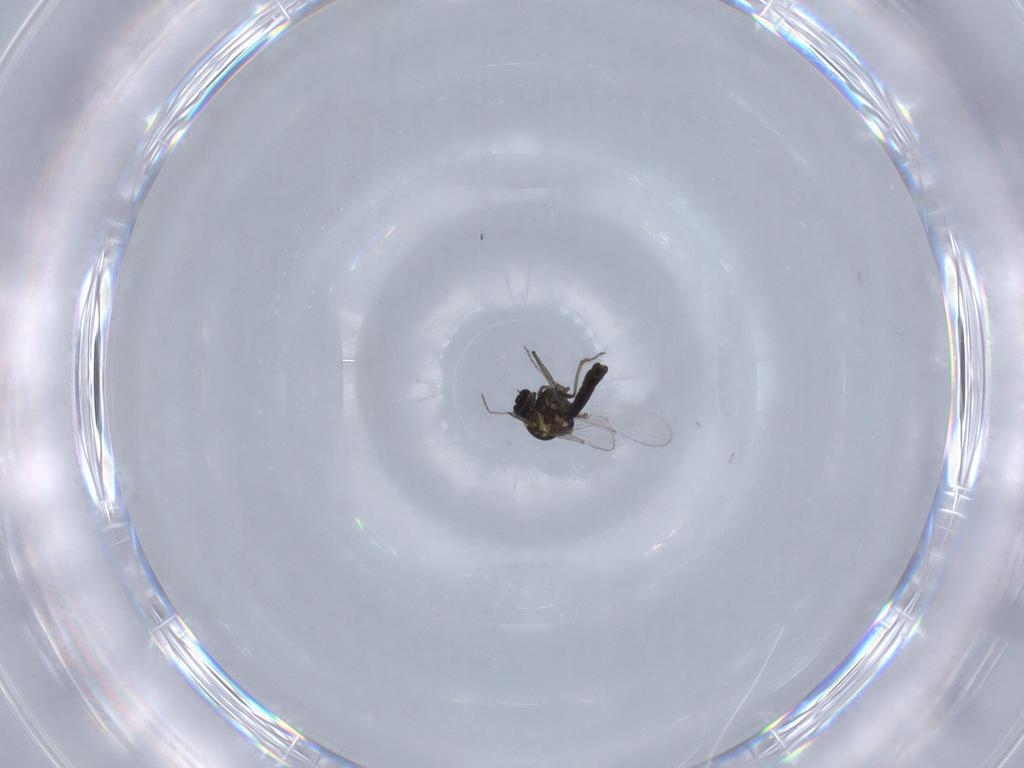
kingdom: Animalia
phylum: Arthropoda
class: Insecta
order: Diptera
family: Ceratopogonidae
